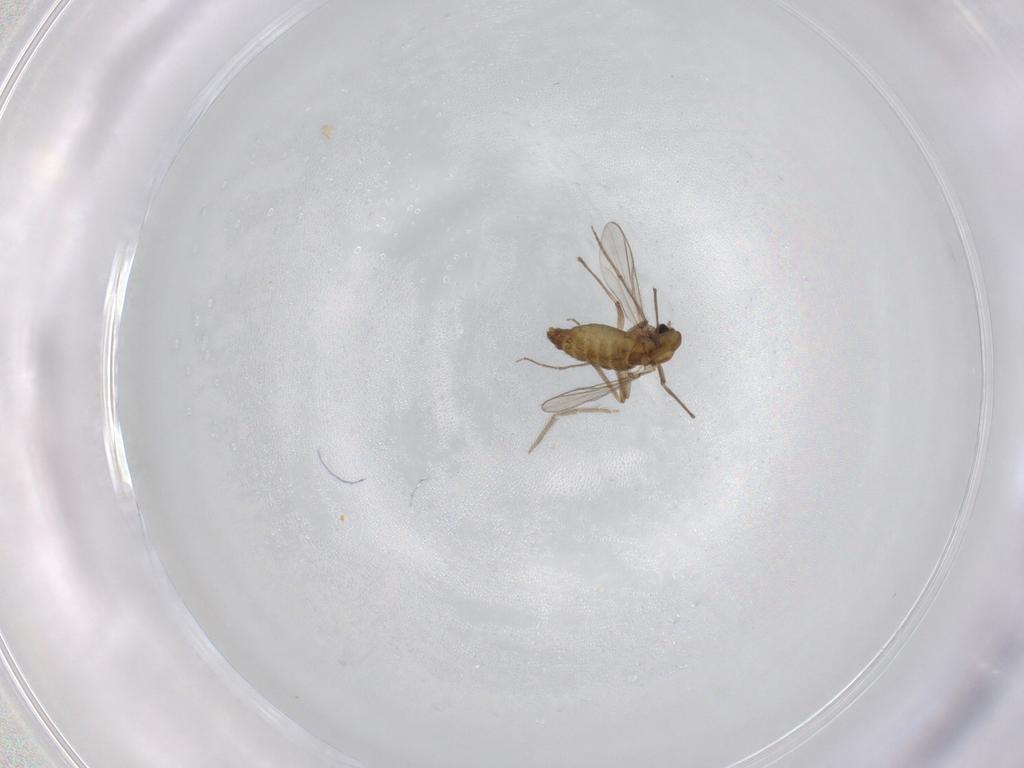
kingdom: Animalia
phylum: Arthropoda
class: Insecta
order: Diptera
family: Chironomidae
